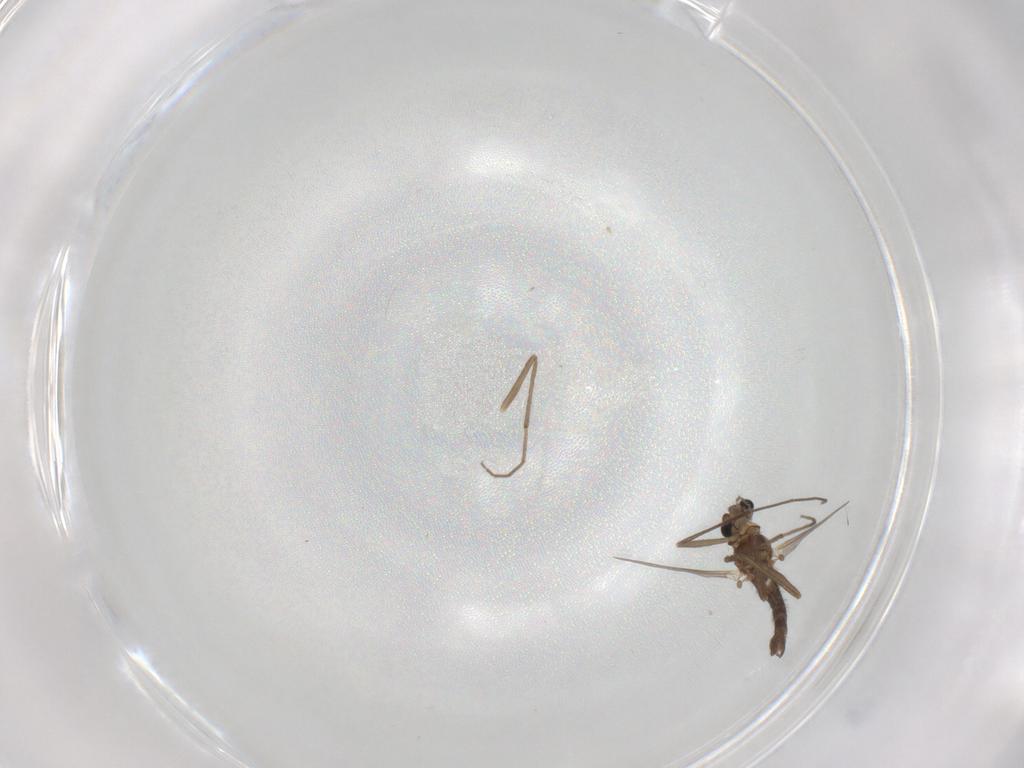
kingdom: Animalia
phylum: Arthropoda
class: Insecta
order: Diptera
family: Chironomidae
